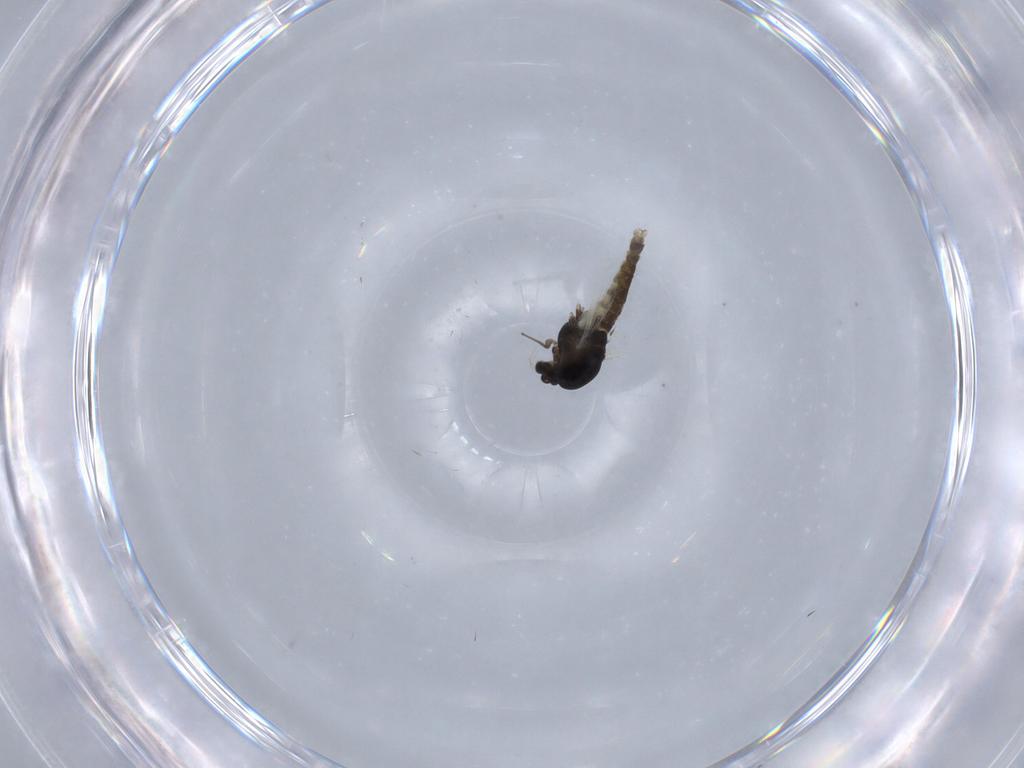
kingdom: Animalia
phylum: Arthropoda
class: Insecta
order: Diptera
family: Chironomidae
